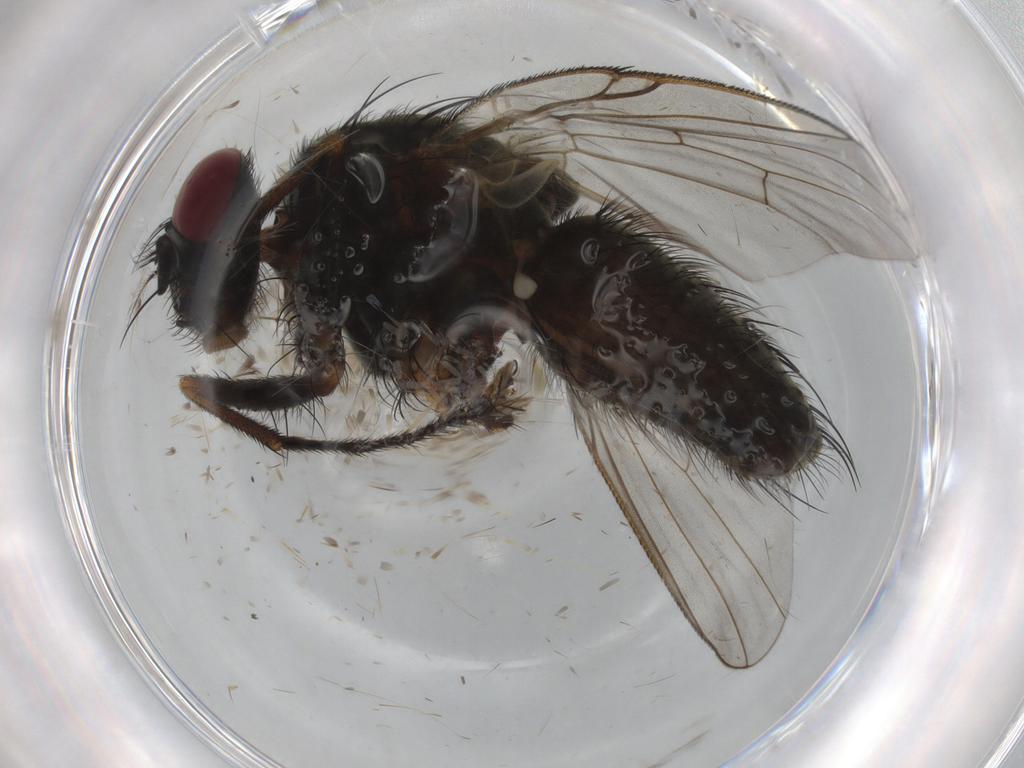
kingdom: Animalia
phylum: Arthropoda
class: Insecta
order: Diptera
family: Muscidae
